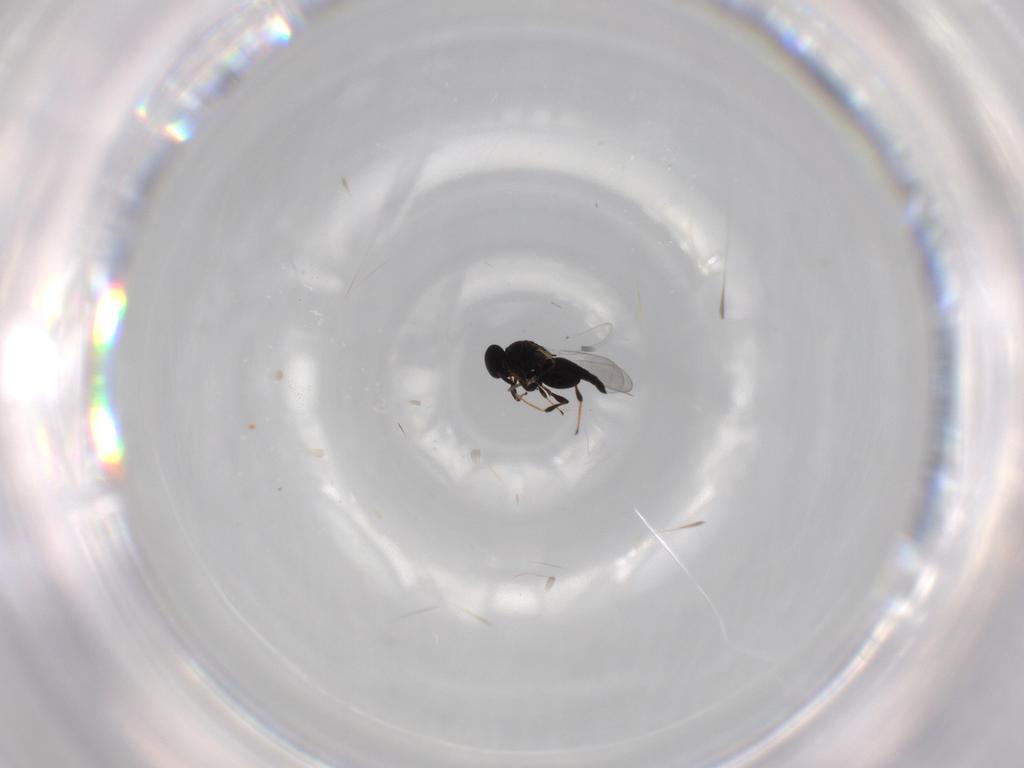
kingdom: Animalia
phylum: Arthropoda
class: Insecta
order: Hymenoptera
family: Platygastridae
